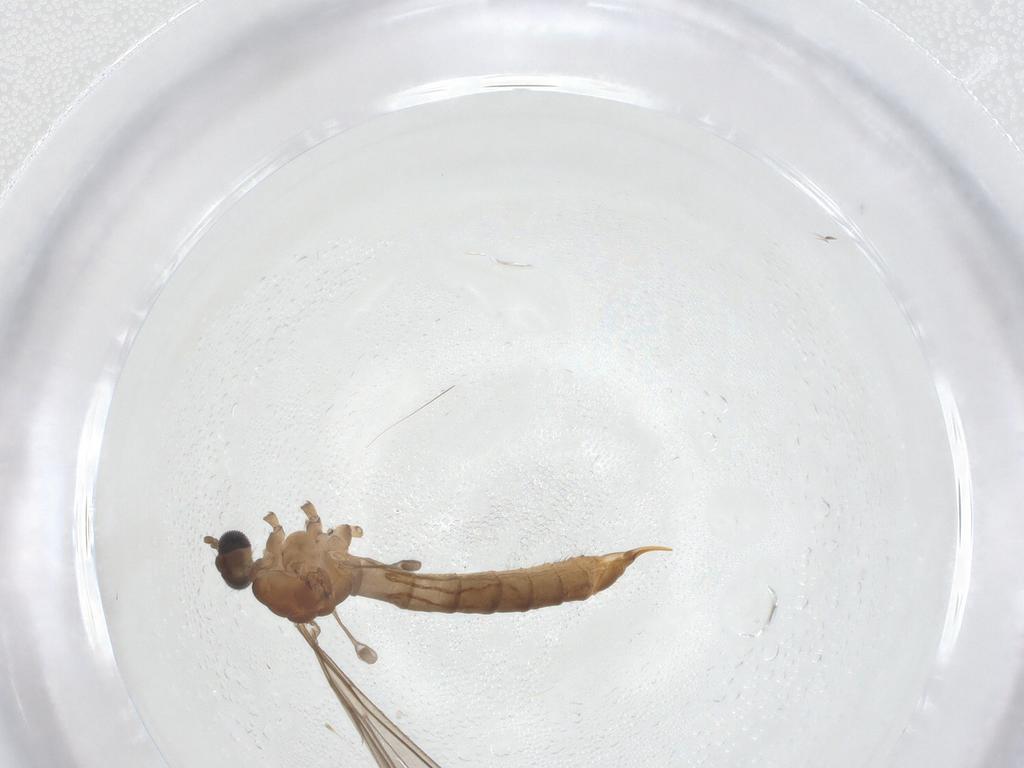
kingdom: Animalia
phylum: Arthropoda
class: Insecta
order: Diptera
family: Limoniidae
